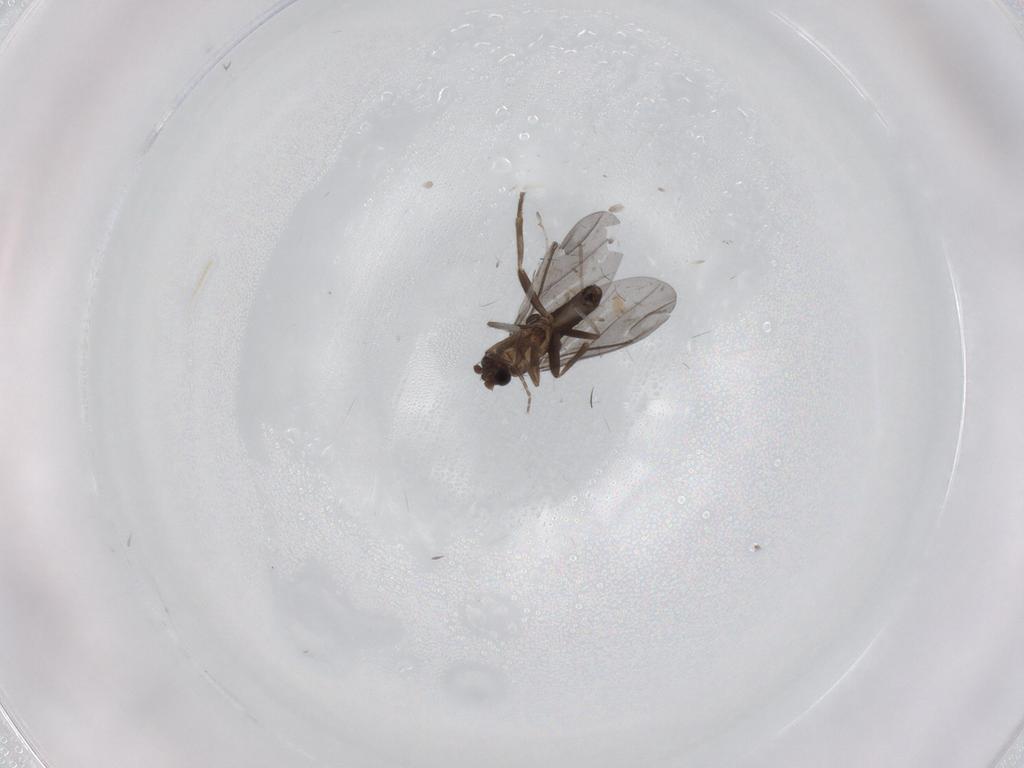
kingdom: Animalia
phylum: Arthropoda
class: Insecta
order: Diptera
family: Cecidomyiidae
